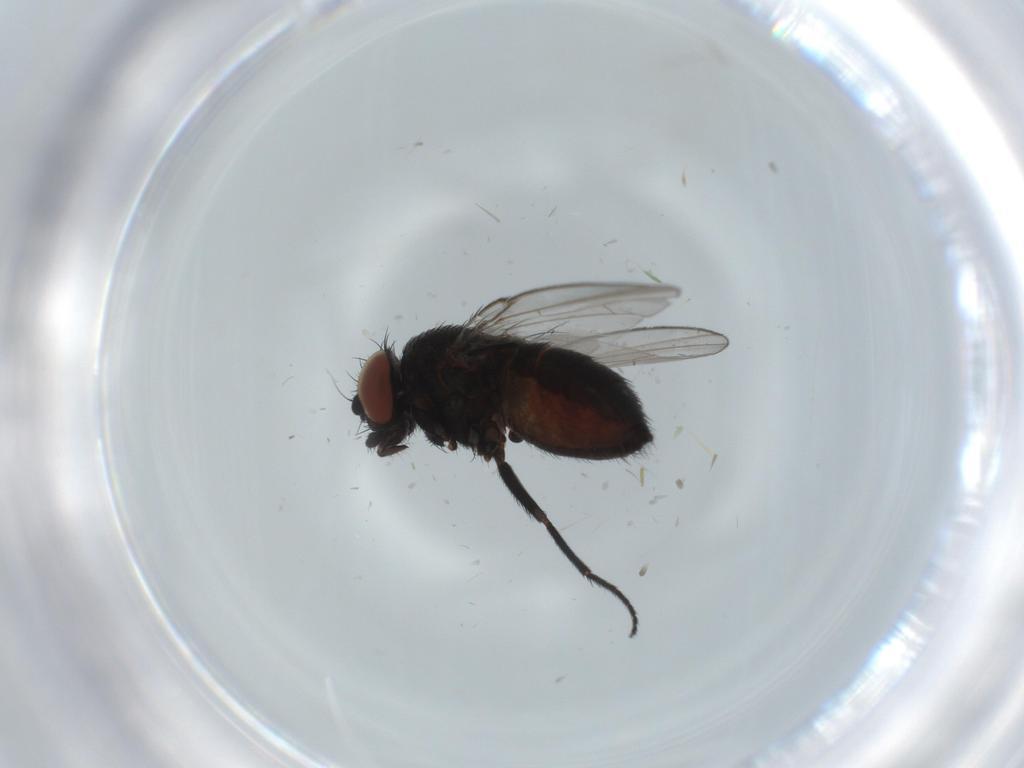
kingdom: Animalia
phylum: Arthropoda
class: Insecta
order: Diptera
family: Milichiidae
